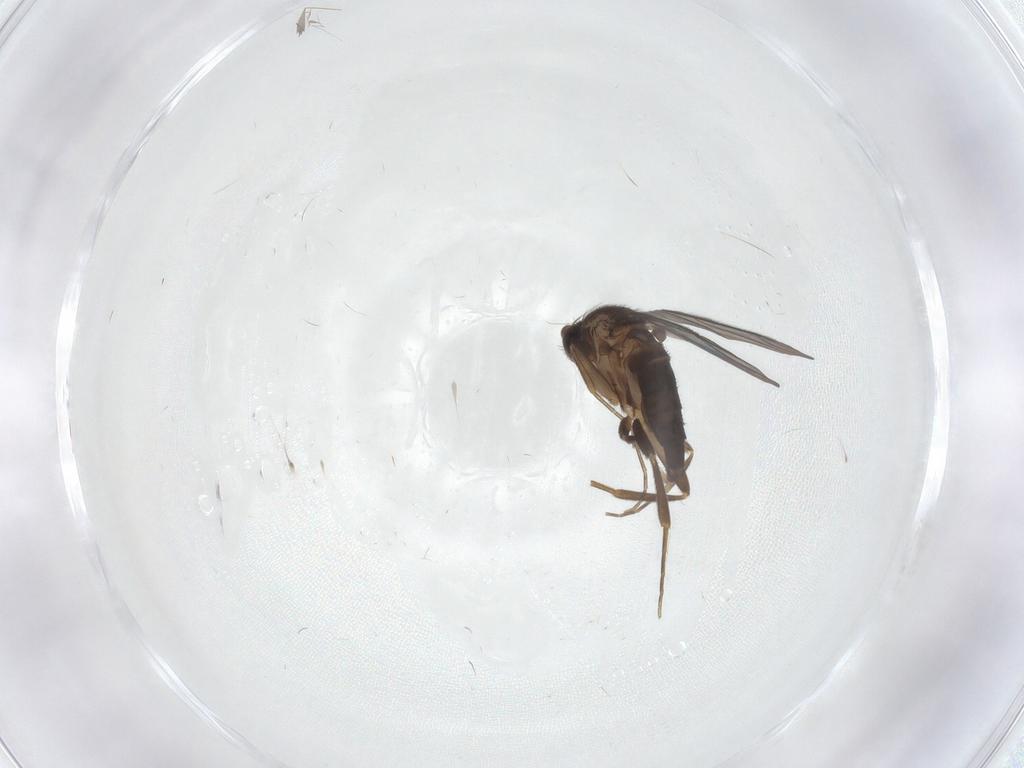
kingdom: Animalia
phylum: Arthropoda
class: Insecta
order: Diptera
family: Chironomidae
